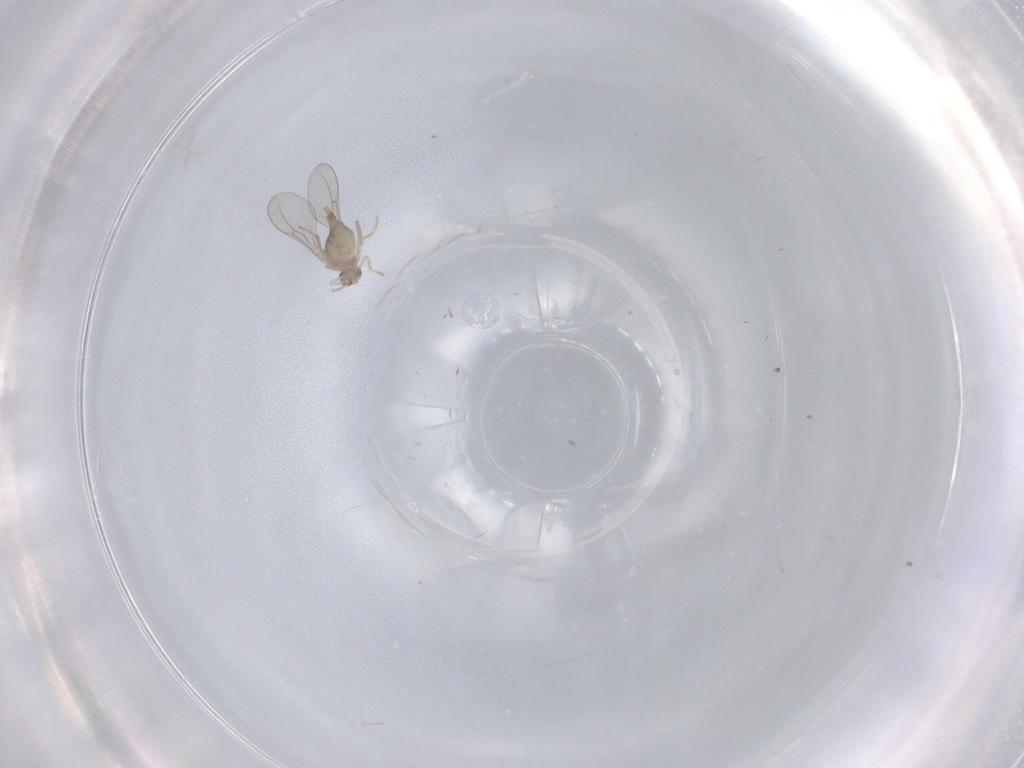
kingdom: Animalia
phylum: Arthropoda
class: Insecta
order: Diptera
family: Cecidomyiidae
